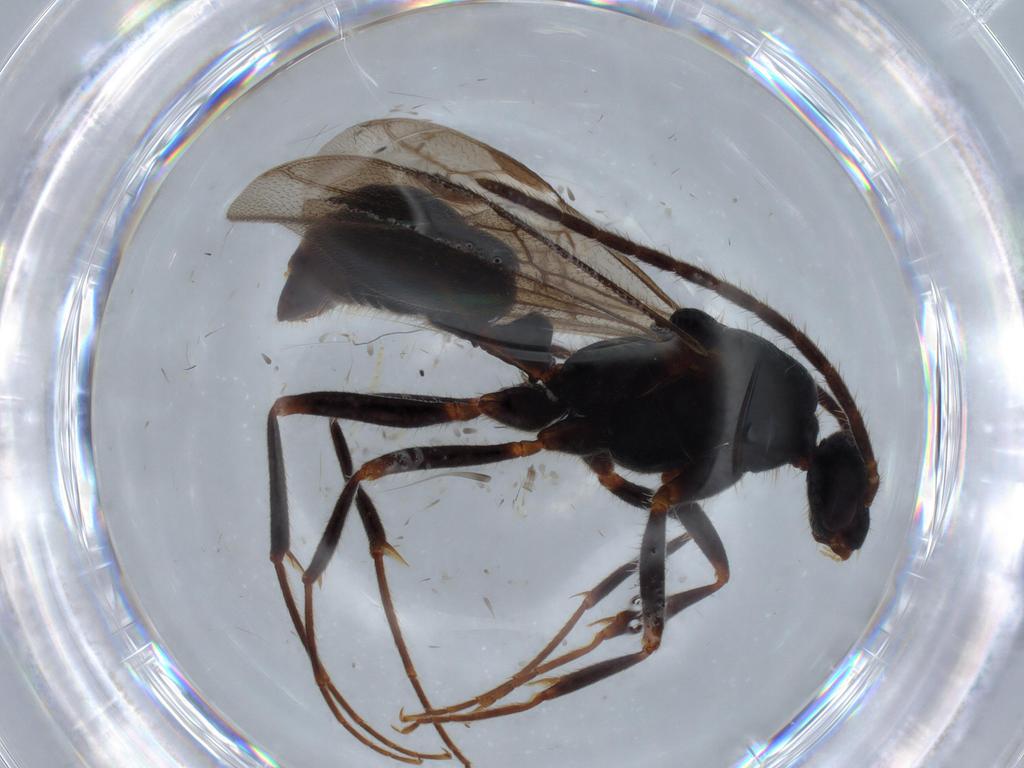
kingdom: Animalia
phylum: Arthropoda
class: Insecta
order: Hymenoptera
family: Formicidae
